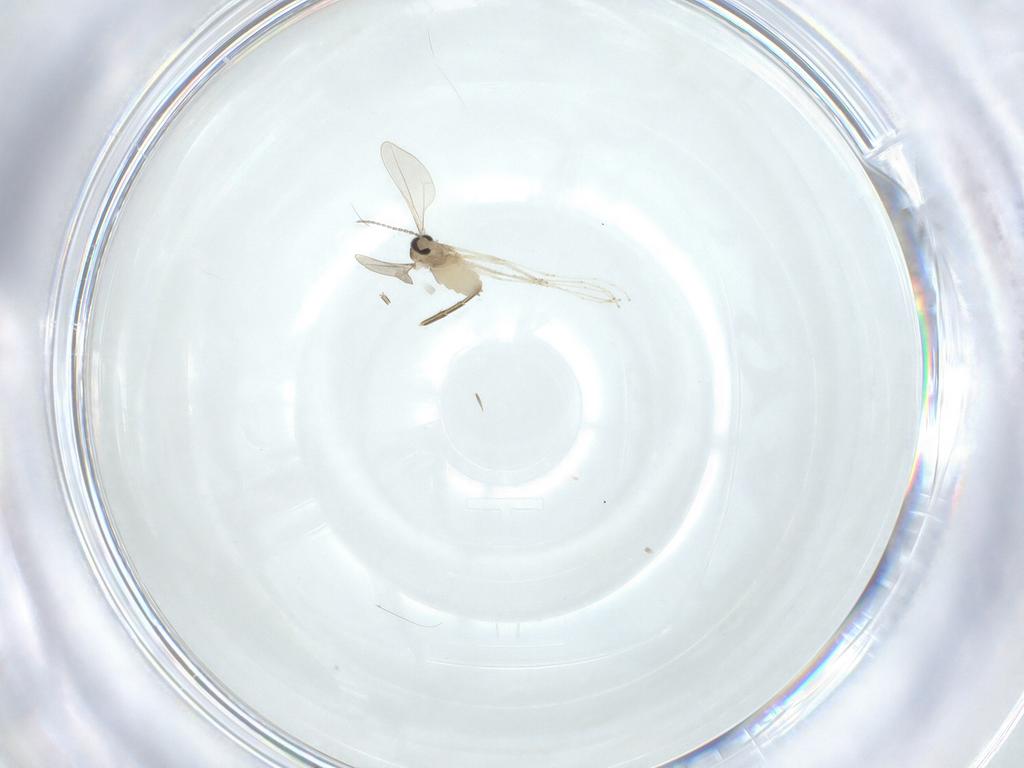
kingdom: Animalia
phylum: Arthropoda
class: Insecta
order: Diptera
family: Cecidomyiidae
